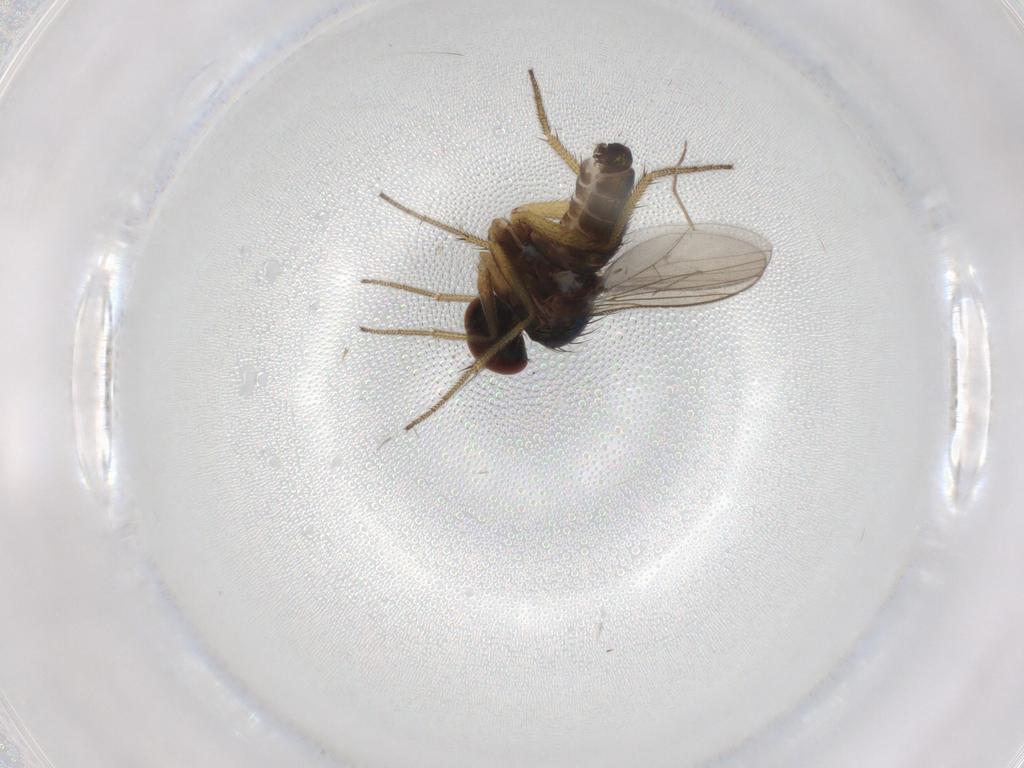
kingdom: Animalia
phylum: Arthropoda
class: Insecta
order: Diptera
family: Chironomidae
